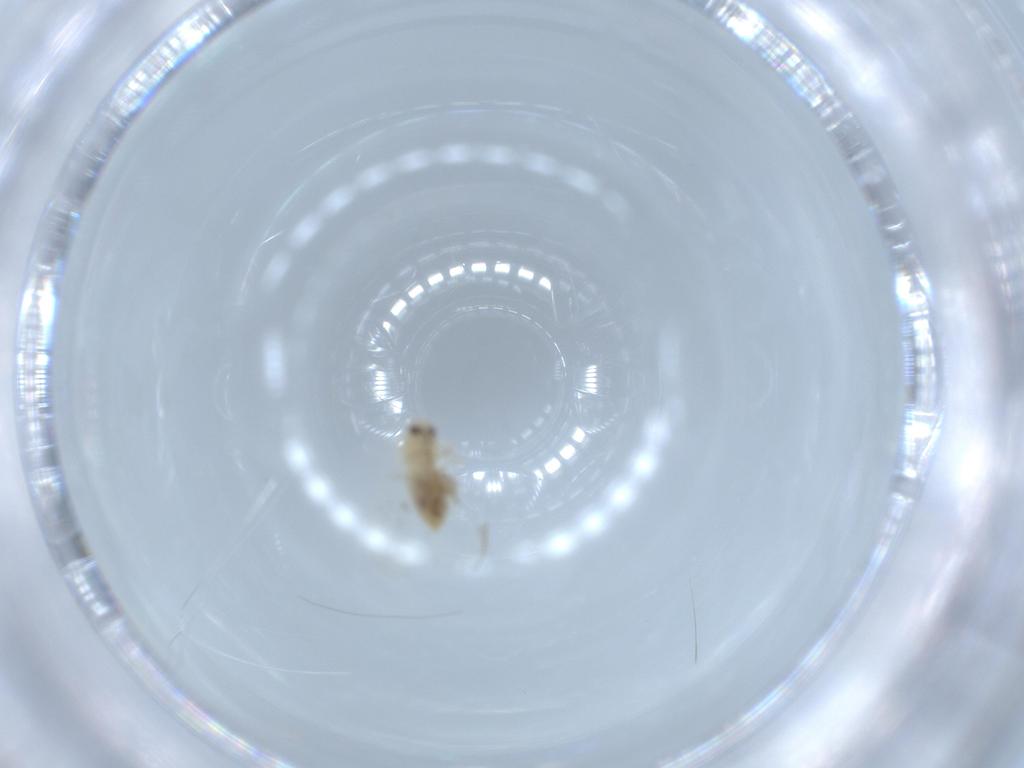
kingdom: Animalia
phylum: Arthropoda
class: Insecta
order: Hemiptera
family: Aleyrodidae
